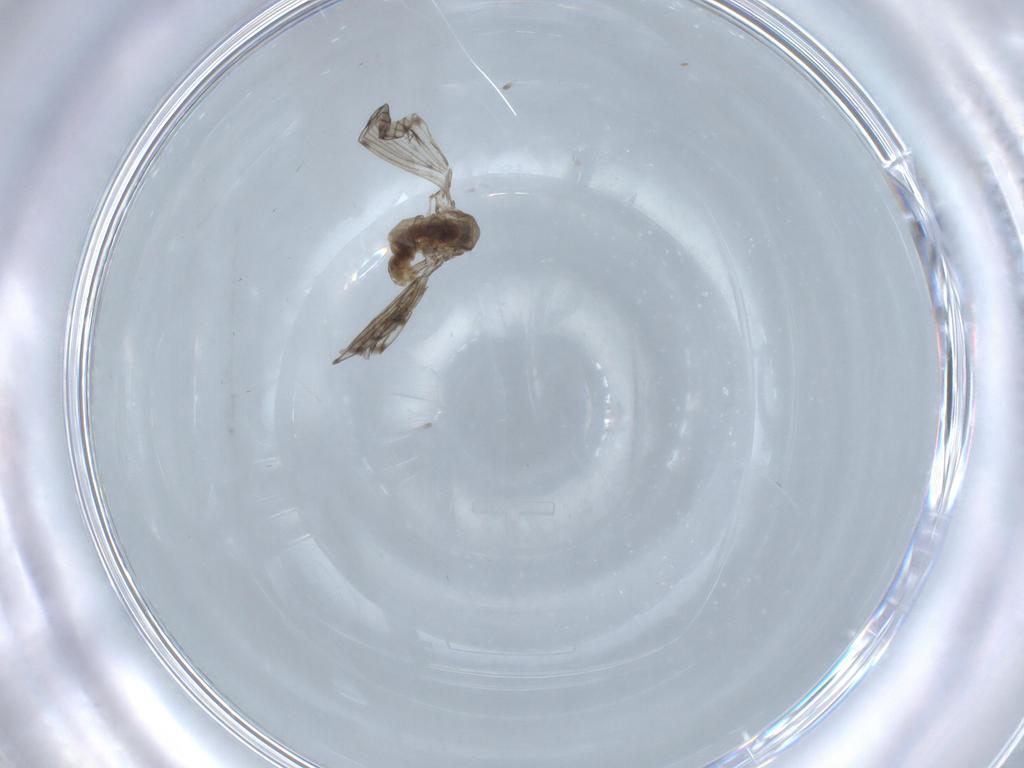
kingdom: Animalia
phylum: Arthropoda
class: Insecta
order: Diptera
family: Cecidomyiidae
